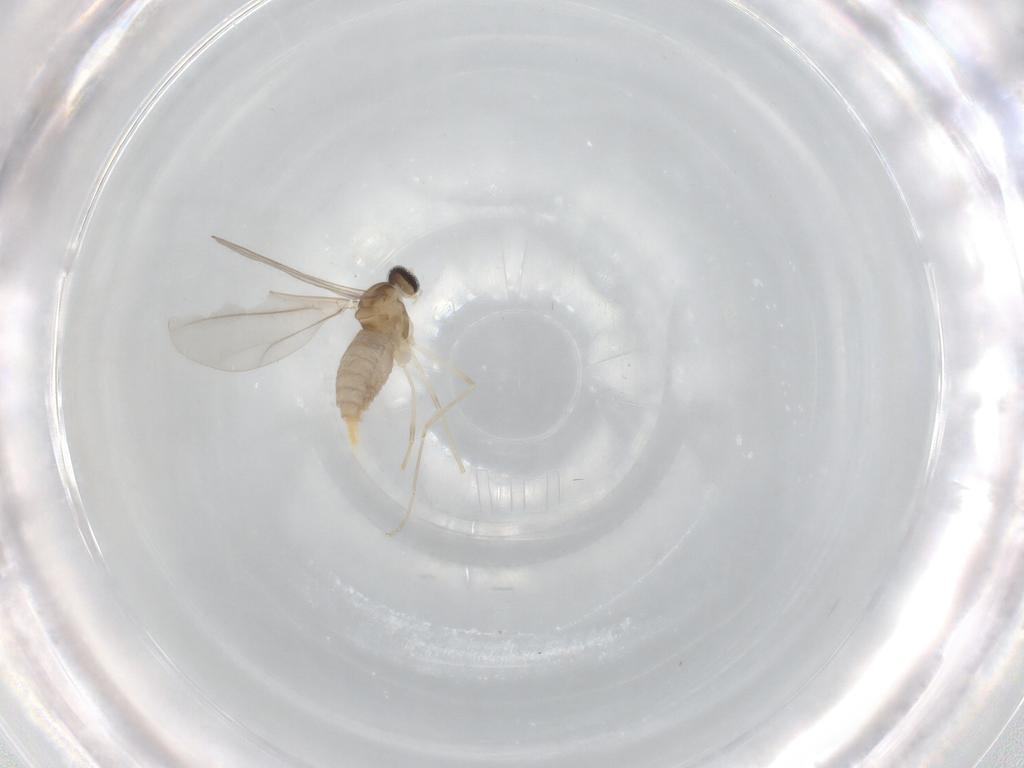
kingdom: Animalia
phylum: Arthropoda
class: Insecta
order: Diptera
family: Cecidomyiidae
